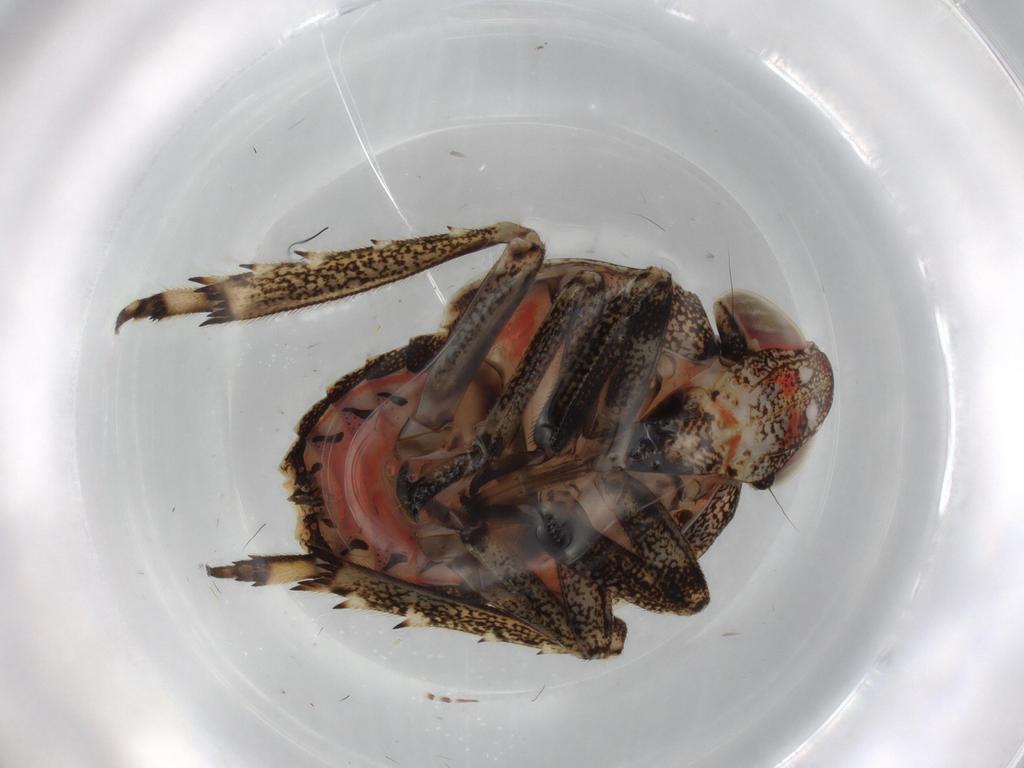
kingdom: Animalia
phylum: Arthropoda
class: Insecta
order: Hemiptera
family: Issidae
